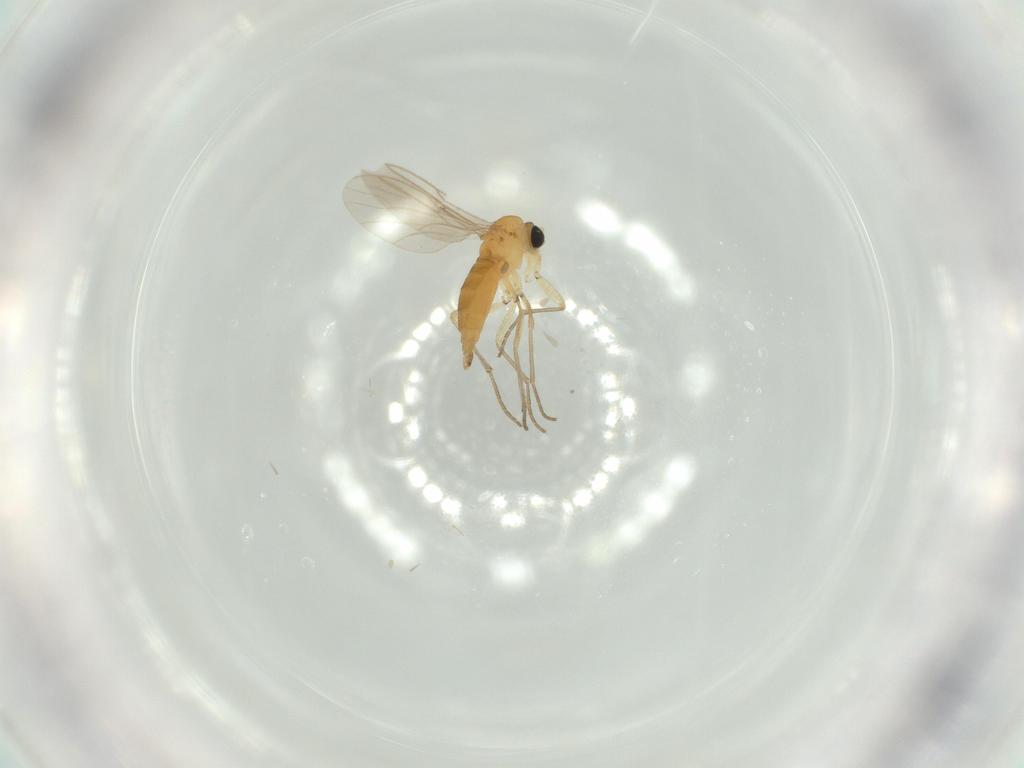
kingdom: Animalia
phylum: Arthropoda
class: Insecta
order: Diptera
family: Sciaridae
